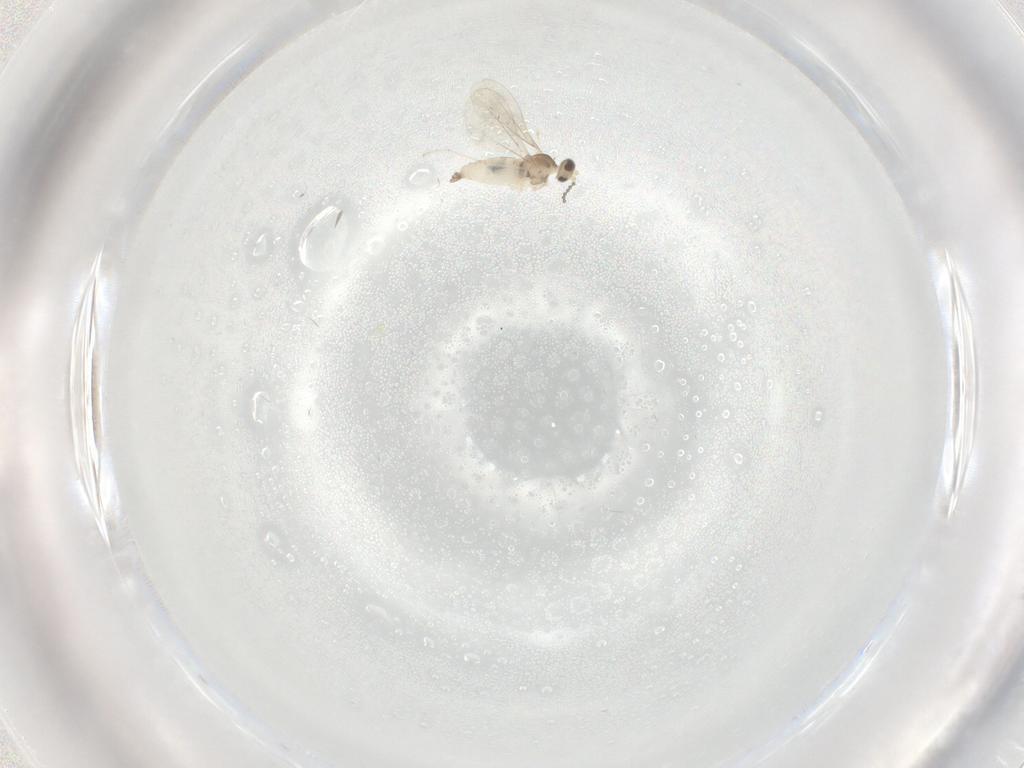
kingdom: Animalia
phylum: Arthropoda
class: Insecta
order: Diptera
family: Cecidomyiidae
